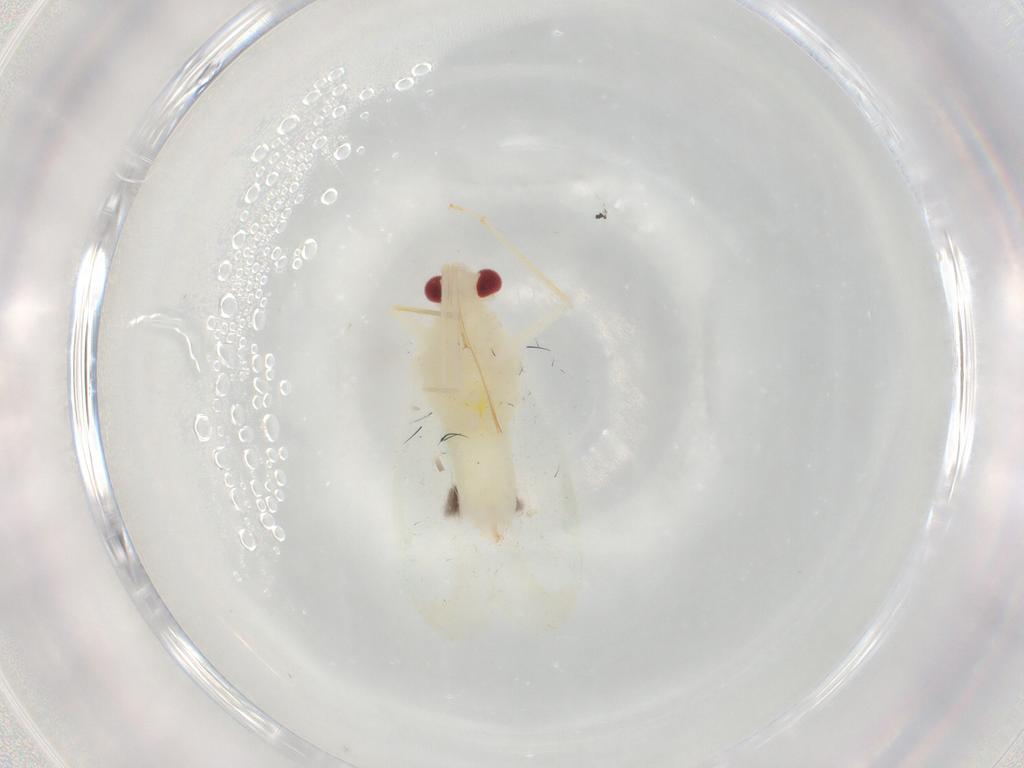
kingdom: Animalia
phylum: Arthropoda
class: Insecta
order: Hemiptera
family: Miridae
